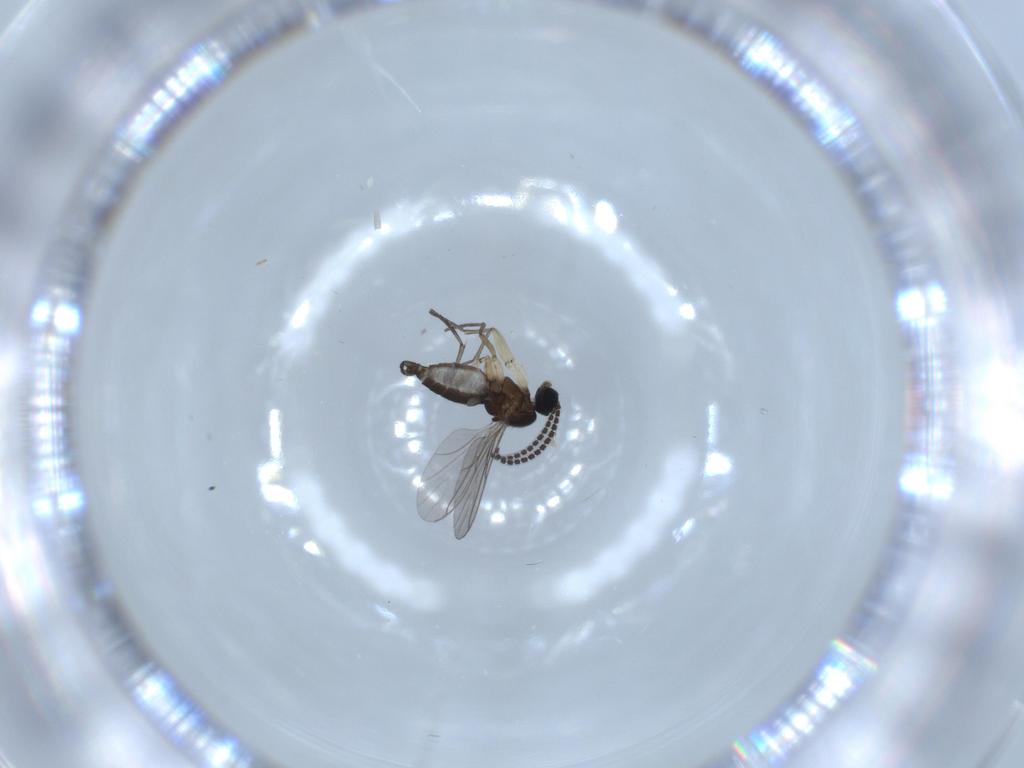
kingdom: Animalia
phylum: Arthropoda
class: Insecta
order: Diptera
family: Sciaridae
